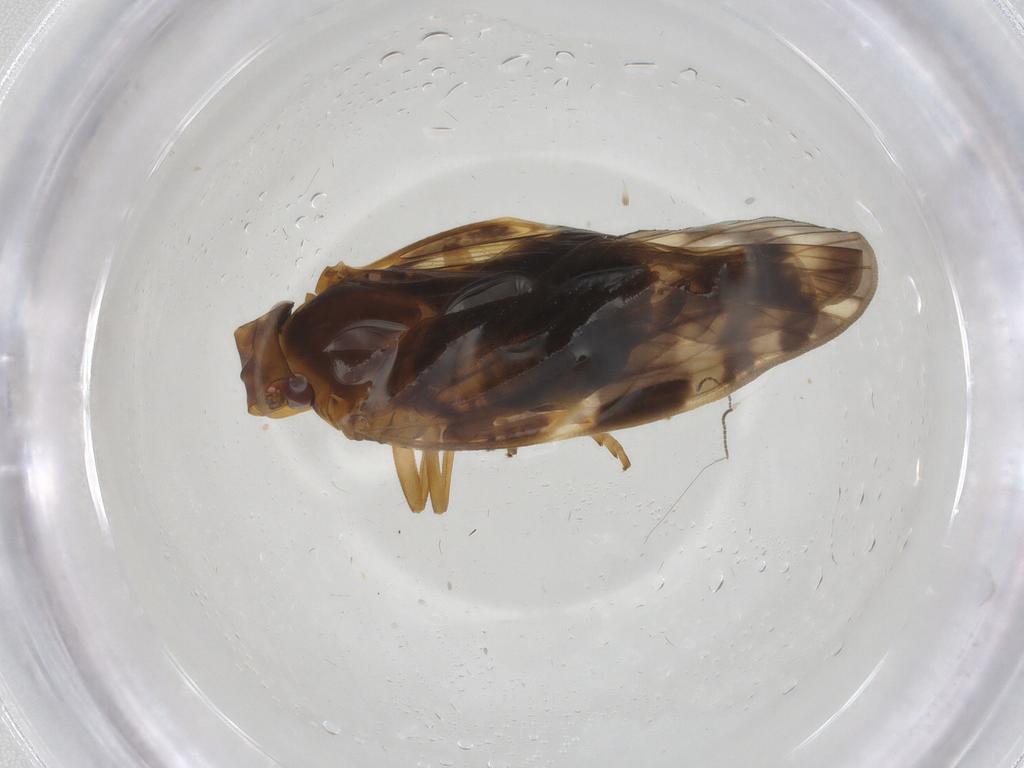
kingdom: Animalia
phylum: Arthropoda
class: Insecta
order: Hemiptera
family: Cixiidae
